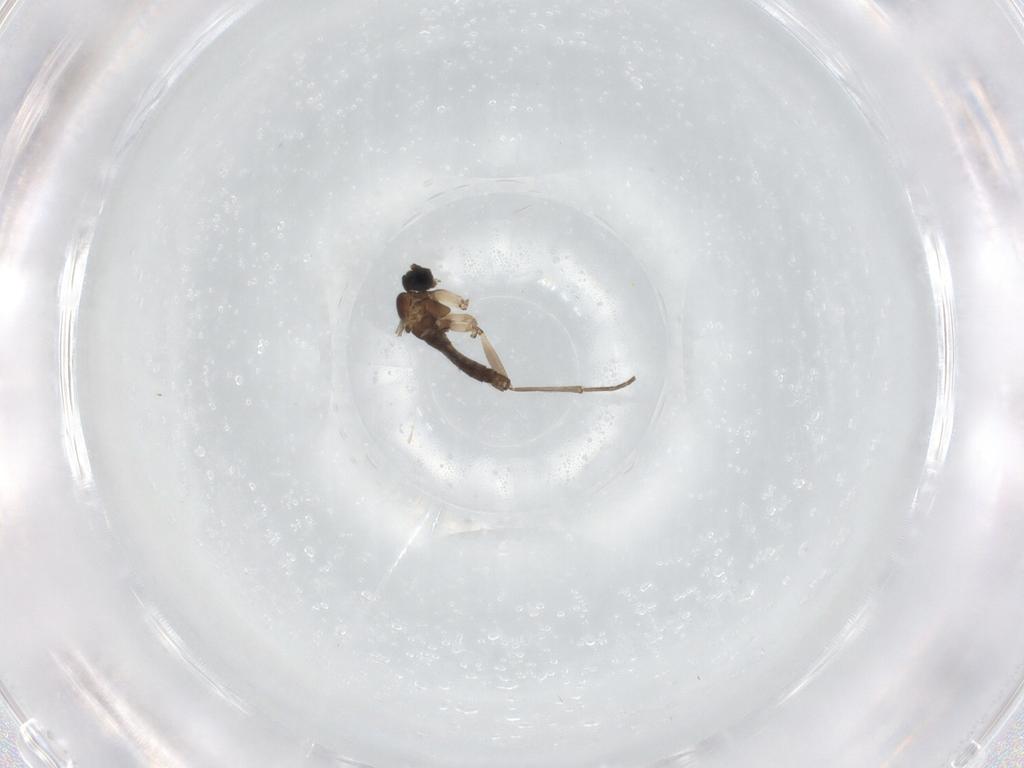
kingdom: Animalia
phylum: Arthropoda
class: Insecta
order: Diptera
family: Sciaridae
